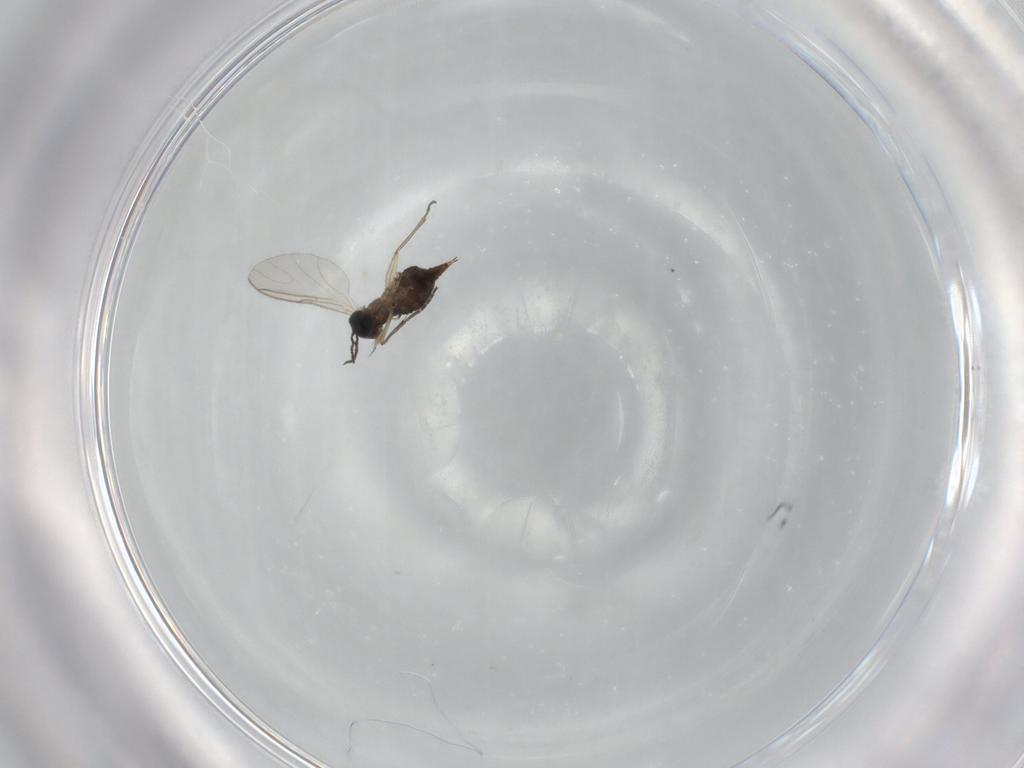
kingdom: Animalia
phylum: Arthropoda
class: Insecta
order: Diptera
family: Sciaridae
